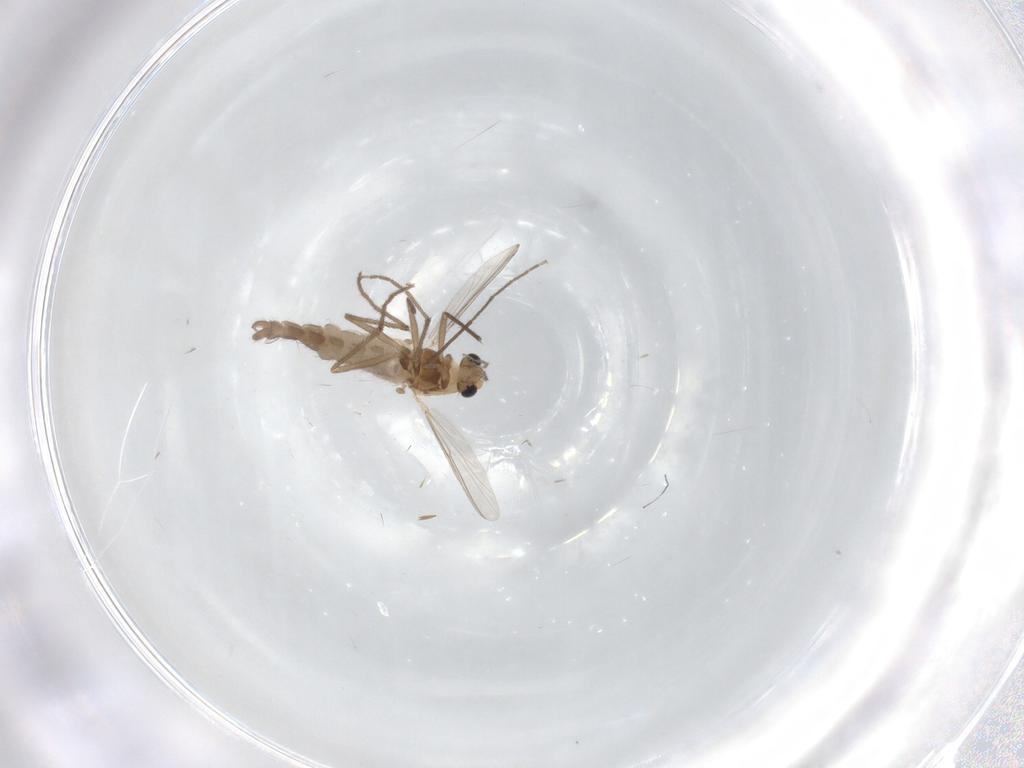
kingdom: Animalia
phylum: Arthropoda
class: Insecta
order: Diptera
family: Chironomidae
